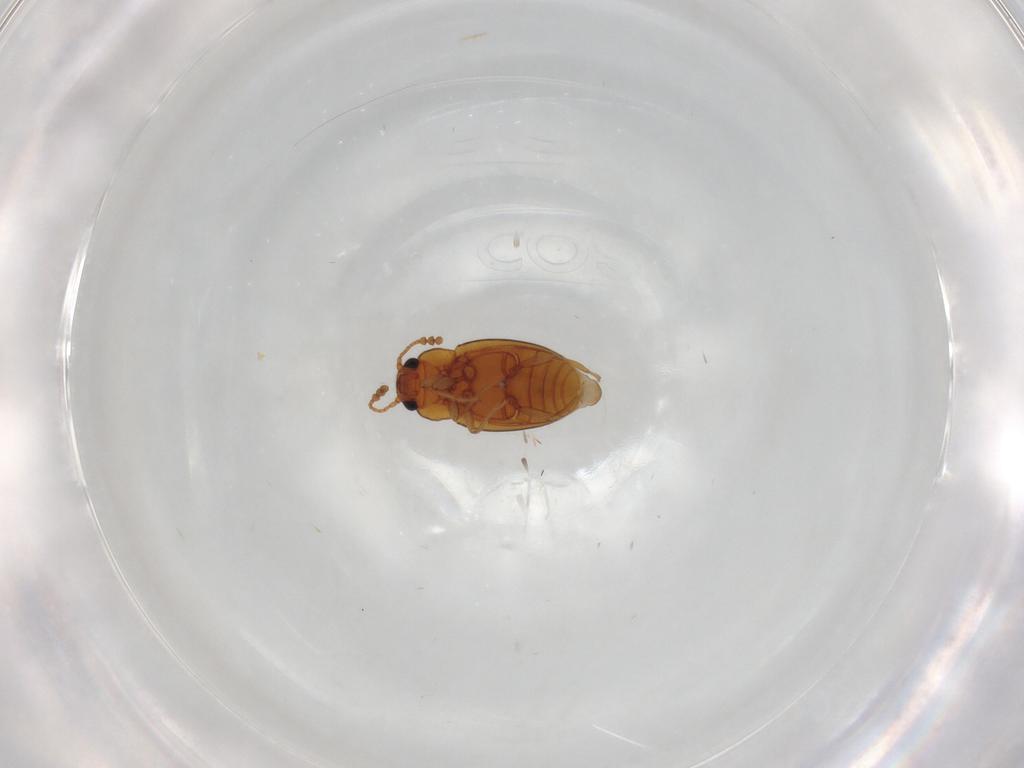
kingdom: Animalia
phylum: Arthropoda
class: Insecta
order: Coleoptera
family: Erotylidae
